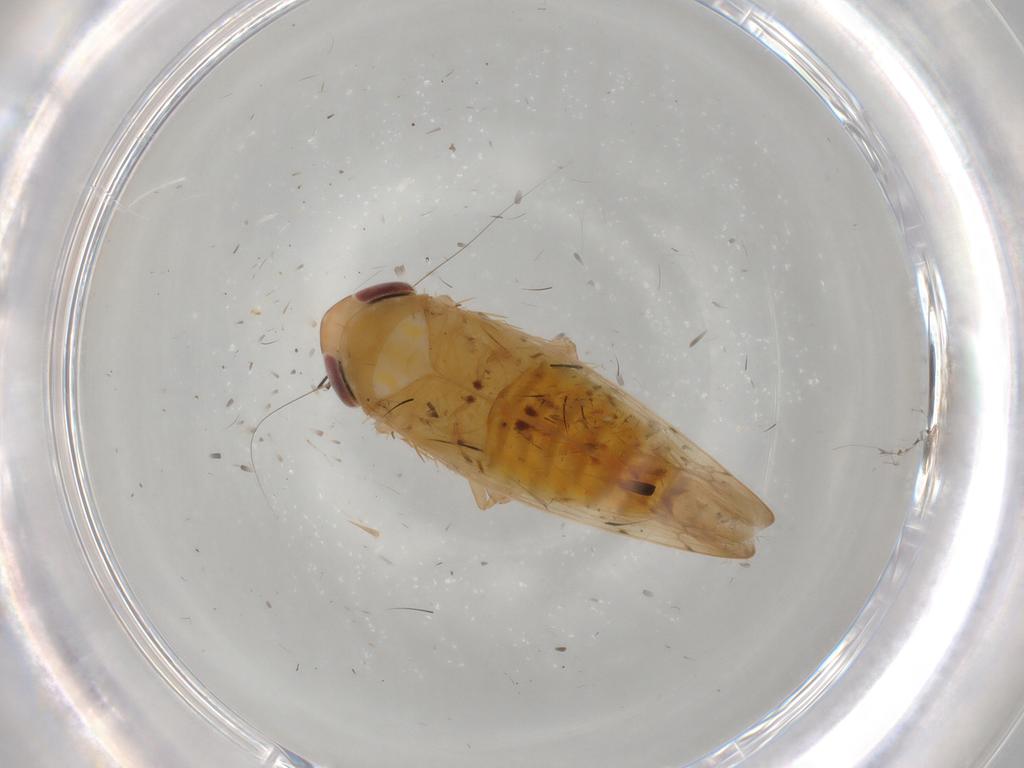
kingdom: Animalia
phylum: Arthropoda
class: Insecta
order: Hemiptera
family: Cicadellidae
